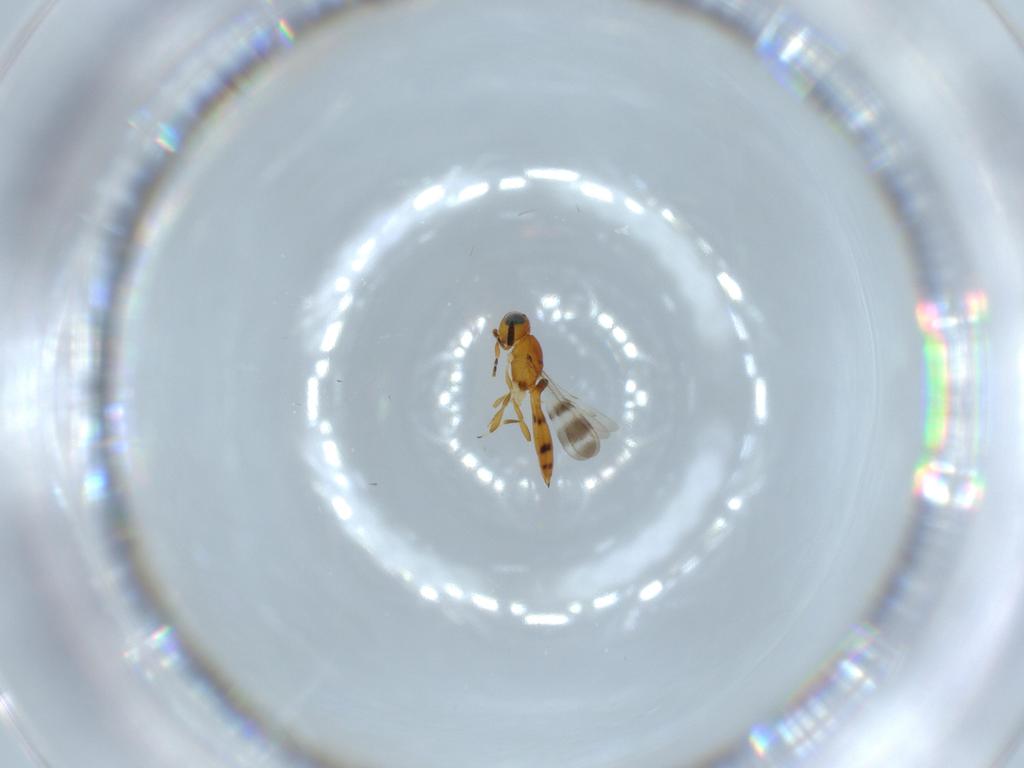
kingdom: Animalia
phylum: Arthropoda
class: Insecta
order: Hymenoptera
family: Scelionidae
